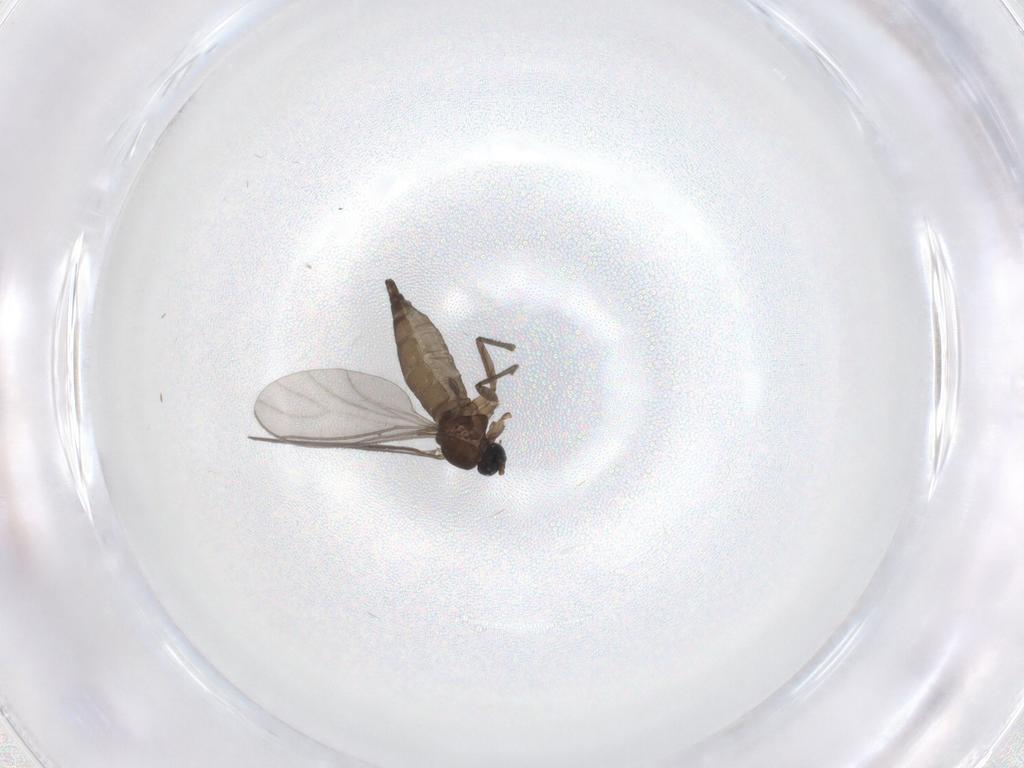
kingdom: Animalia
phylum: Arthropoda
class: Insecta
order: Diptera
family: Sciaridae
